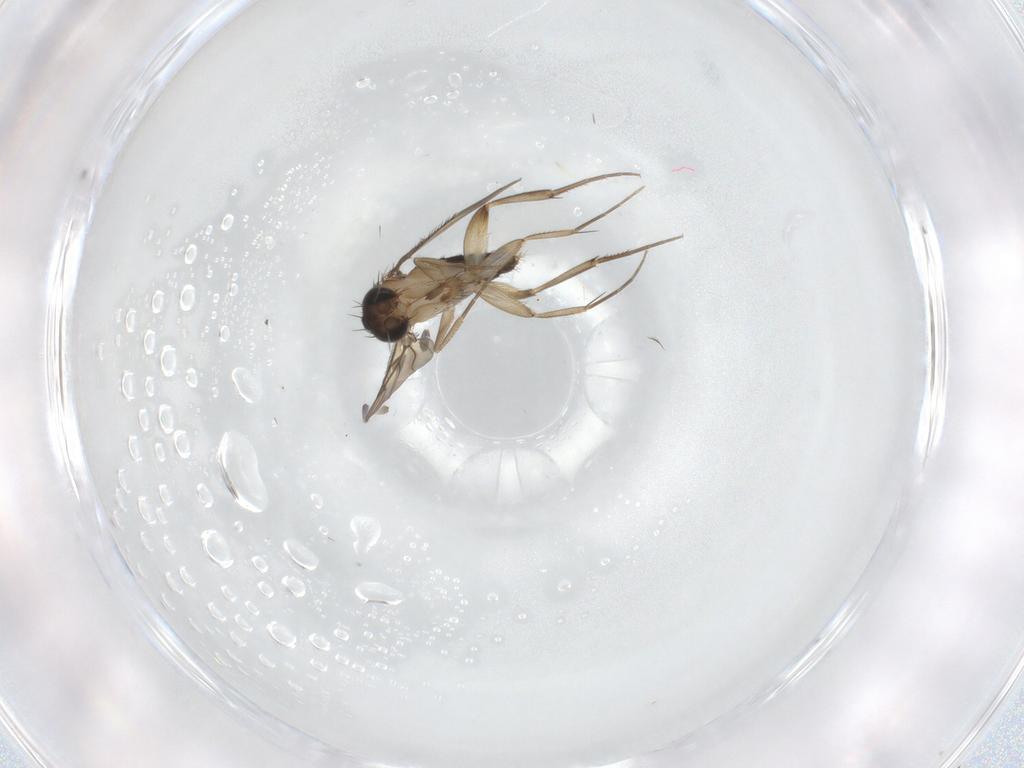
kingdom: Animalia
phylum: Arthropoda
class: Insecta
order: Diptera
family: Phoridae
